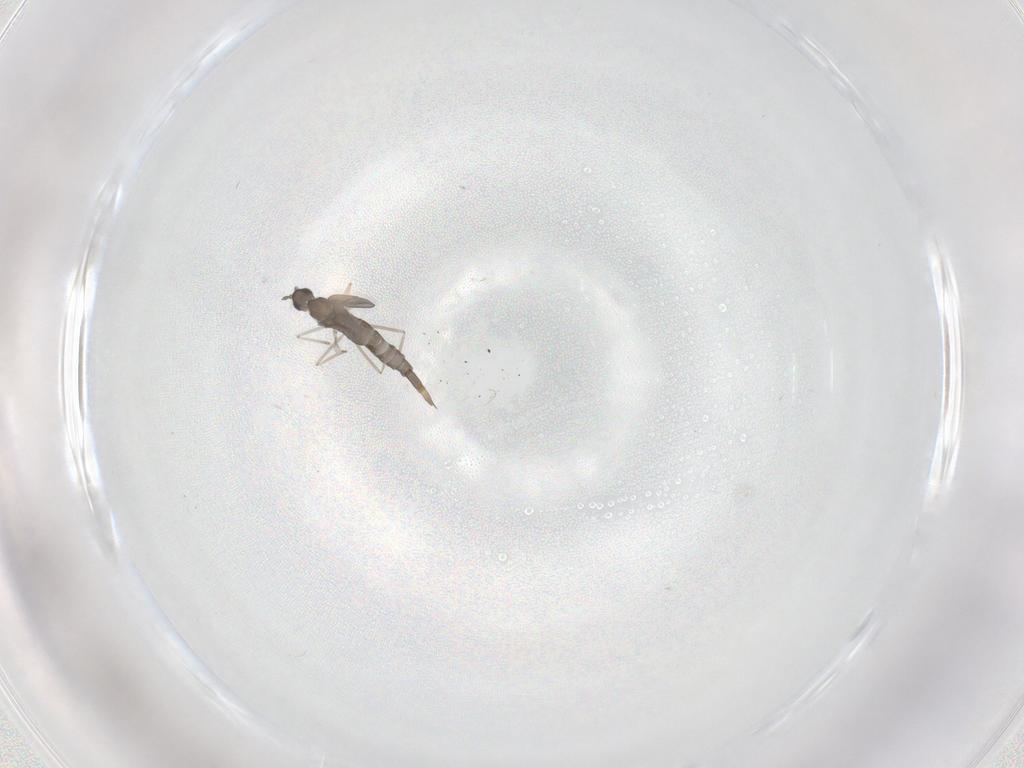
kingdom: Animalia
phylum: Arthropoda
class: Insecta
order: Diptera
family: Cecidomyiidae
